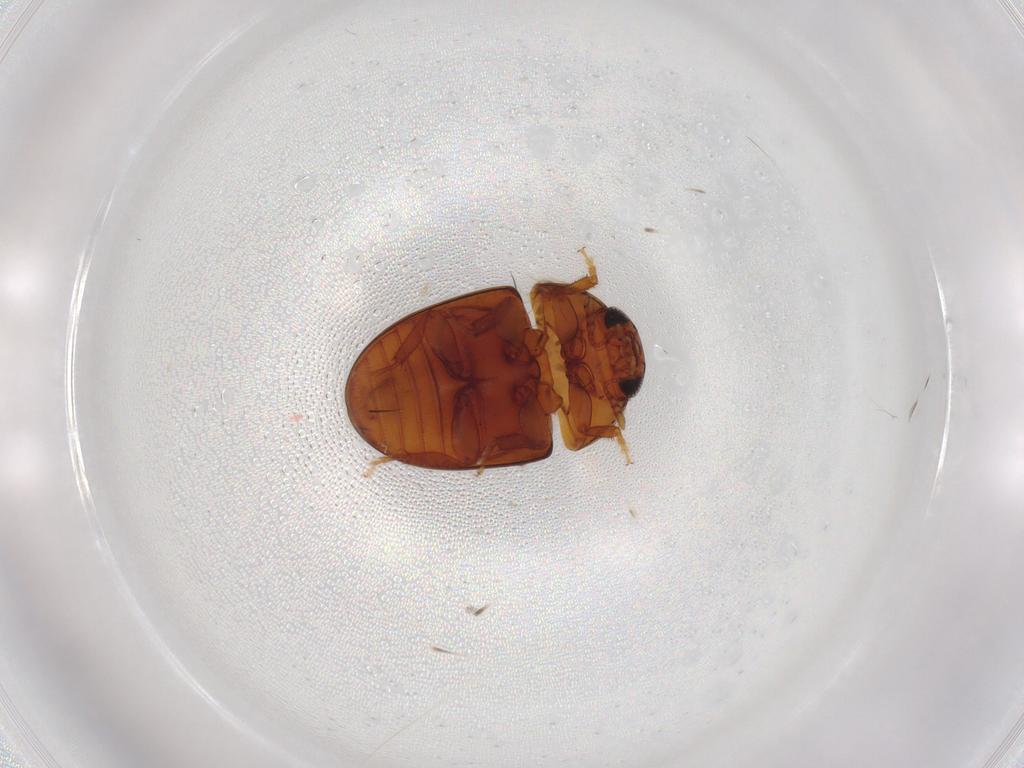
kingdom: Animalia
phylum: Arthropoda
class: Insecta
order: Coleoptera
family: Phalacridae
